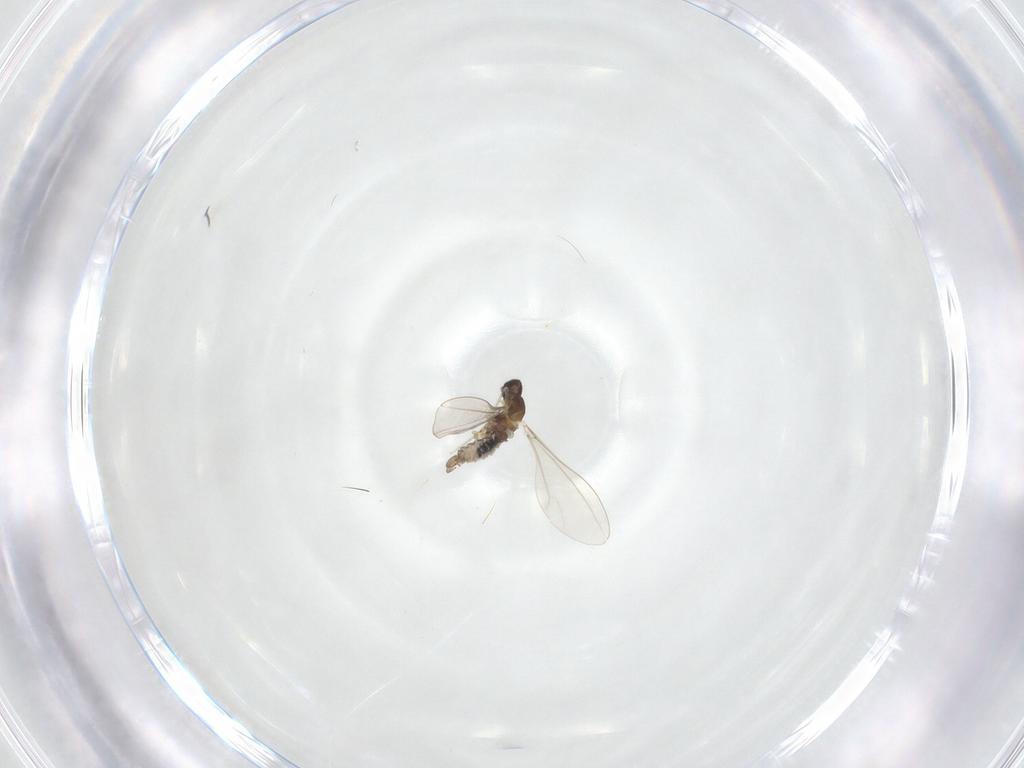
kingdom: Animalia
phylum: Arthropoda
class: Insecta
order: Diptera
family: Cecidomyiidae
